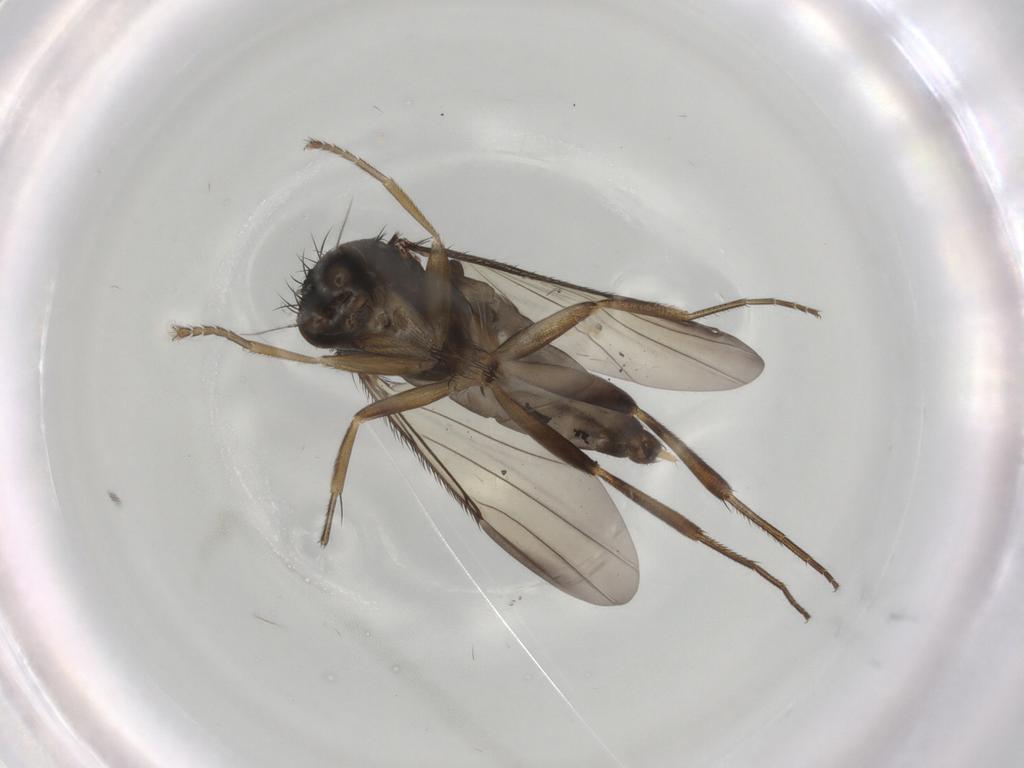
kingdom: Animalia
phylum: Arthropoda
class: Insecta
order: Diptera
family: Phoridae
